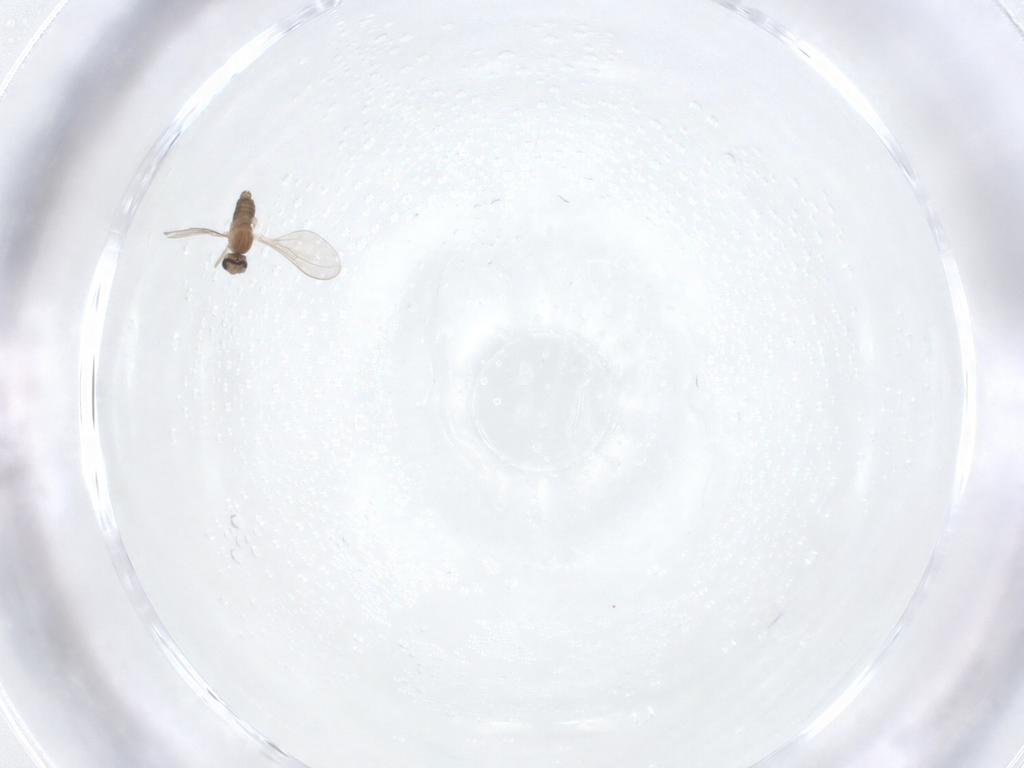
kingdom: Animalia
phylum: Arthropoda
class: Insecta
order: Diptera
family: Cecidomyiidae
